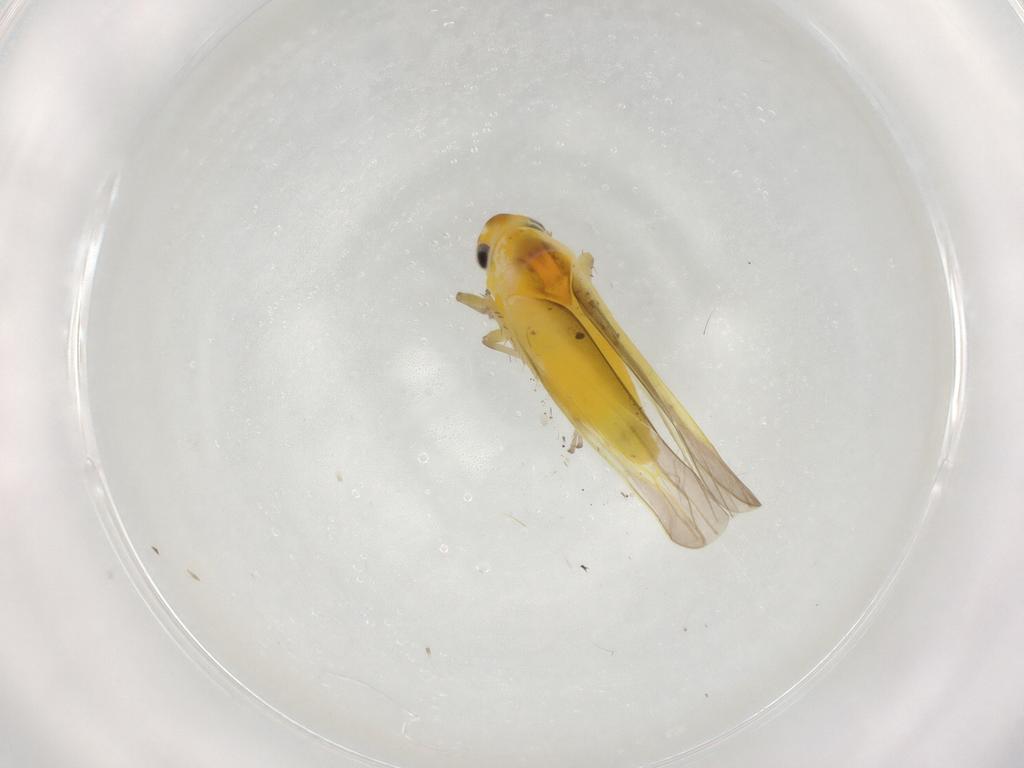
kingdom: Animalia
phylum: Arthropoda
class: Insecta
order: Hemiptera
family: Cicadellidae
